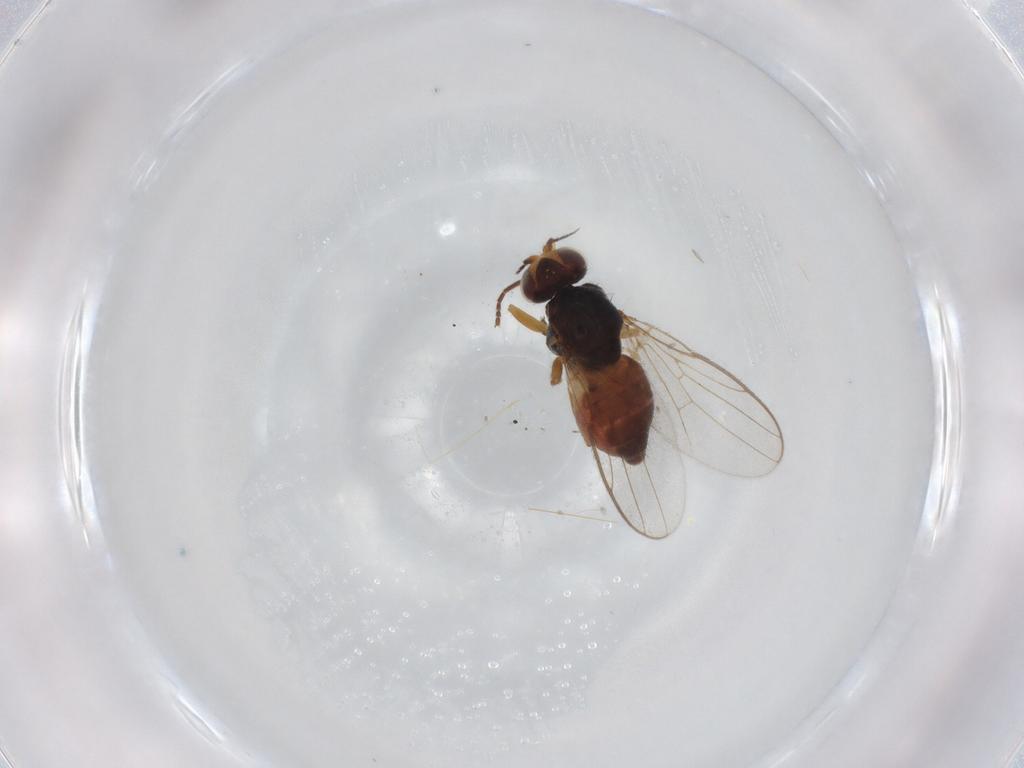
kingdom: Animalia
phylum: Arthropoda
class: Insecta
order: Diptera
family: Chloropidae
